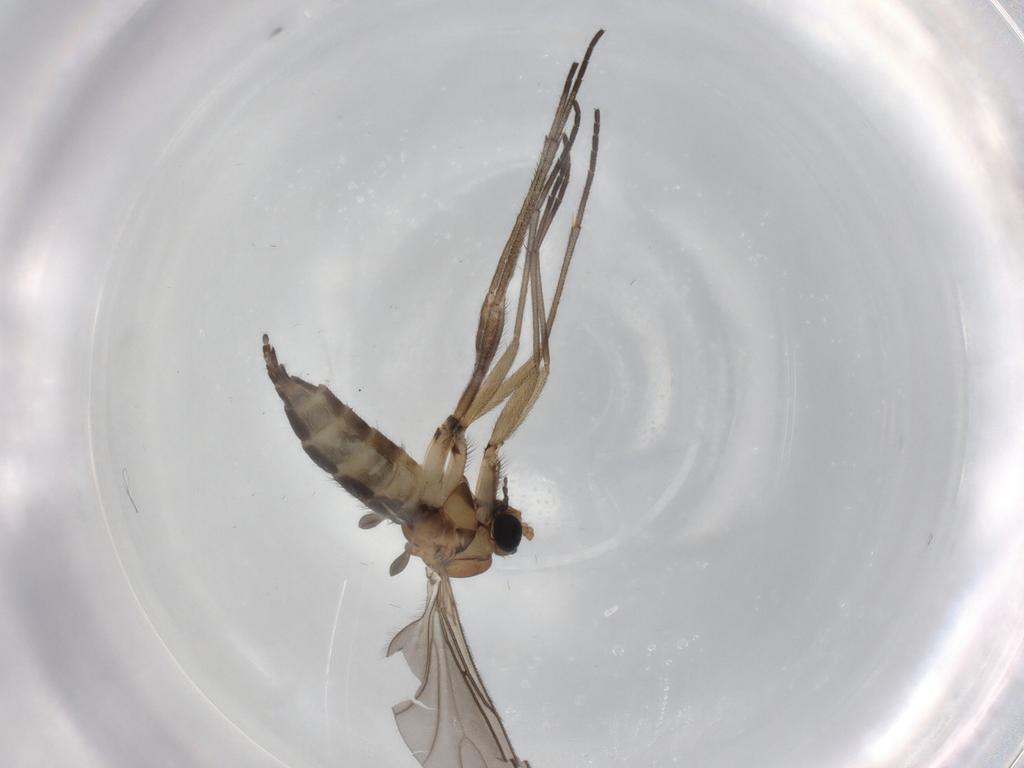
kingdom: Animalia
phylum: Arthropoda
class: Insecta
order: Diptera
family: Sciaridae
